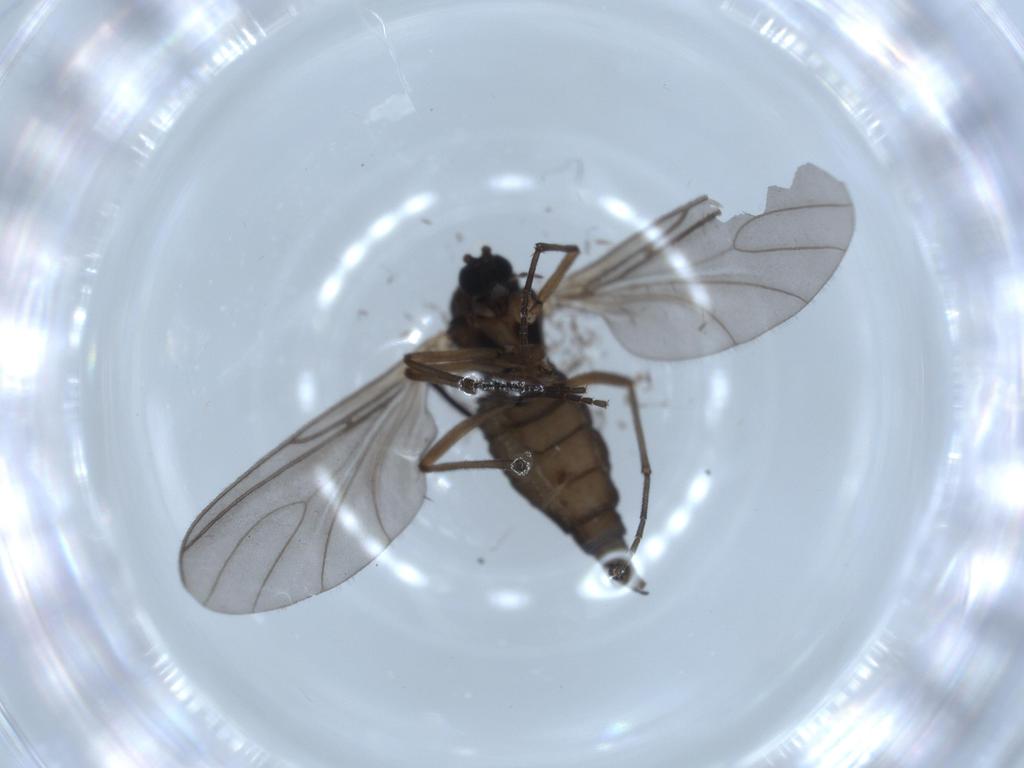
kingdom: Animalia
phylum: Arthropoda
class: Insecta
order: Diptera
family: Sciaridae
